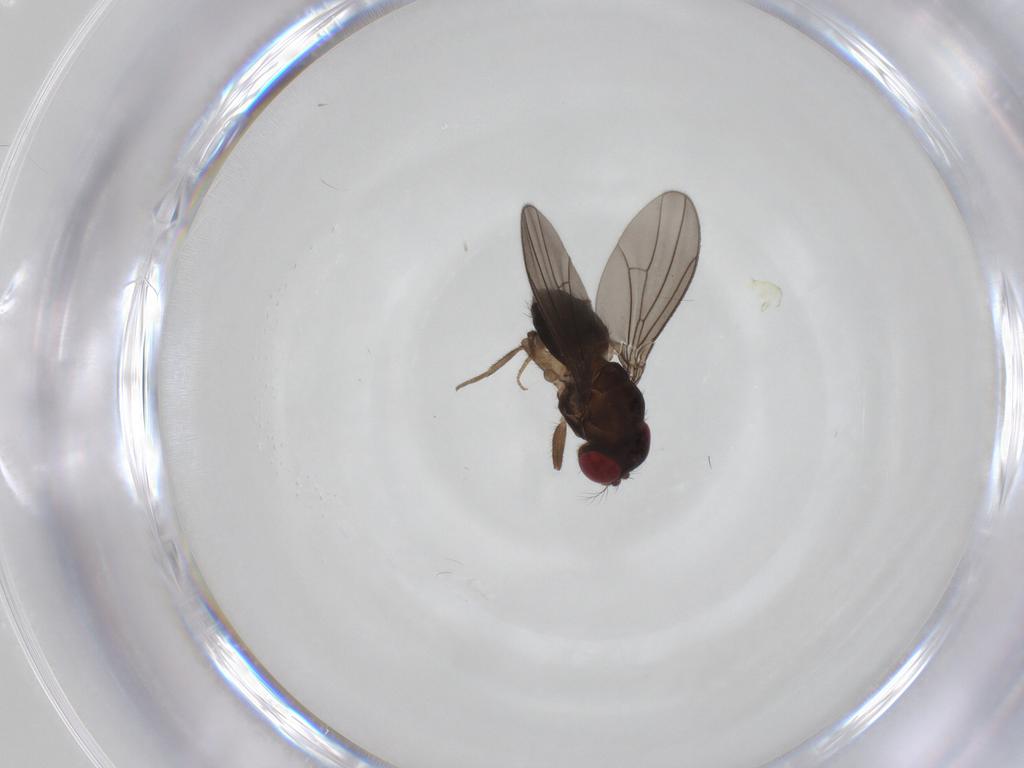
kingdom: Animalia
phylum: Arthropoda
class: Insecta
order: Diptera
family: Drosophilidae
